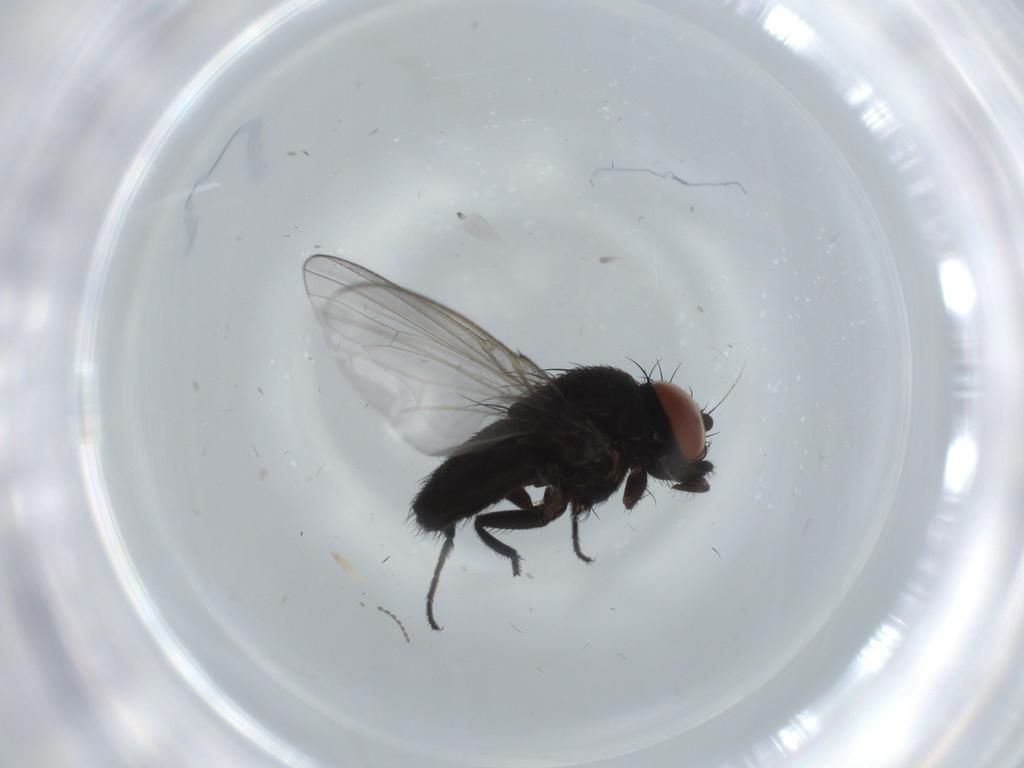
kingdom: Animalia
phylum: Arthropoda
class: Insecta
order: Diptera
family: Milichiidae
